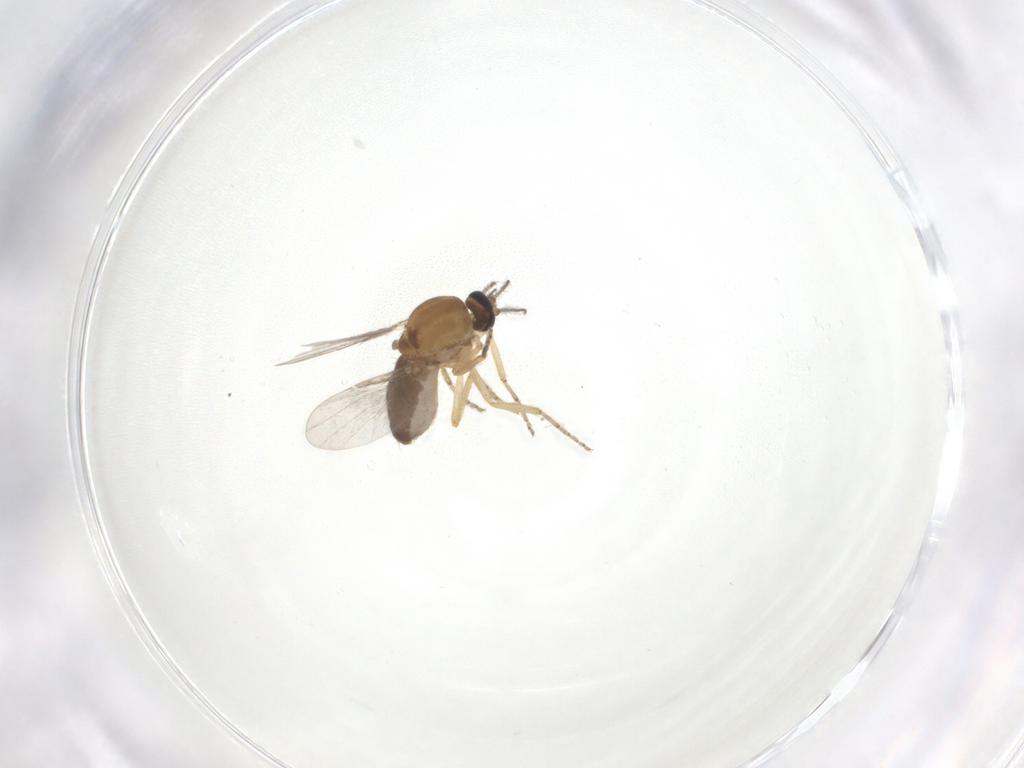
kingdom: Animalia
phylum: Arthropoda
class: Insecta
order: Diptera
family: Ceratopogonidae
